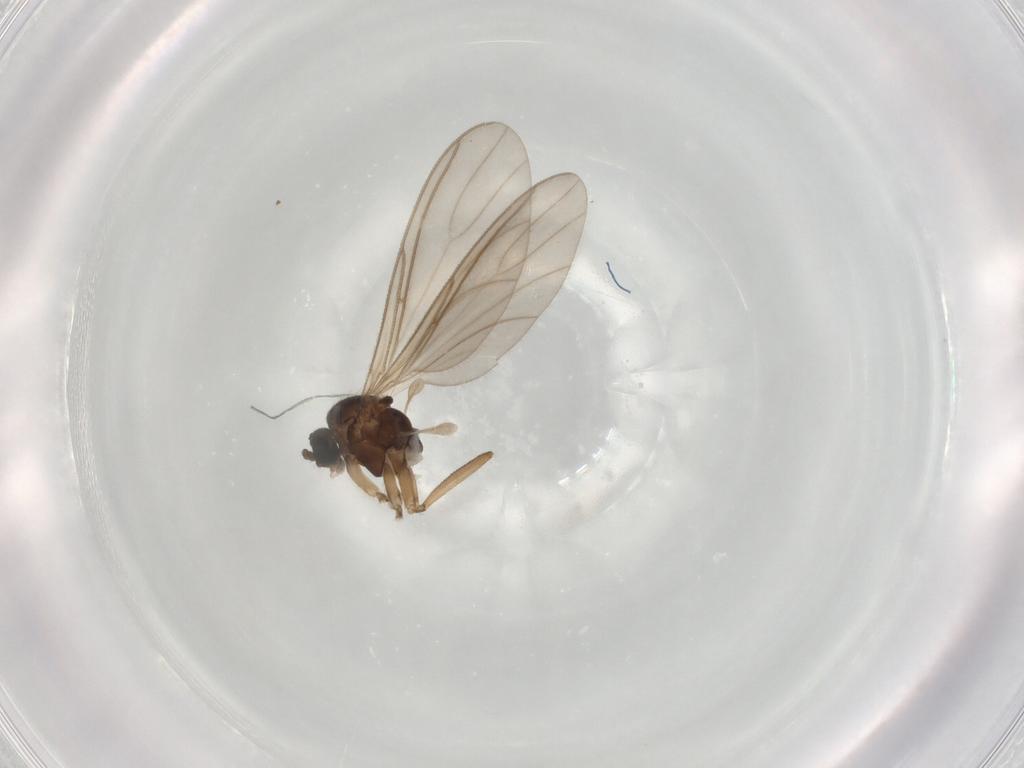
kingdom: Animalia
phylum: Arthropoda
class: Insecta
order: Diptera
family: Sciaridae
